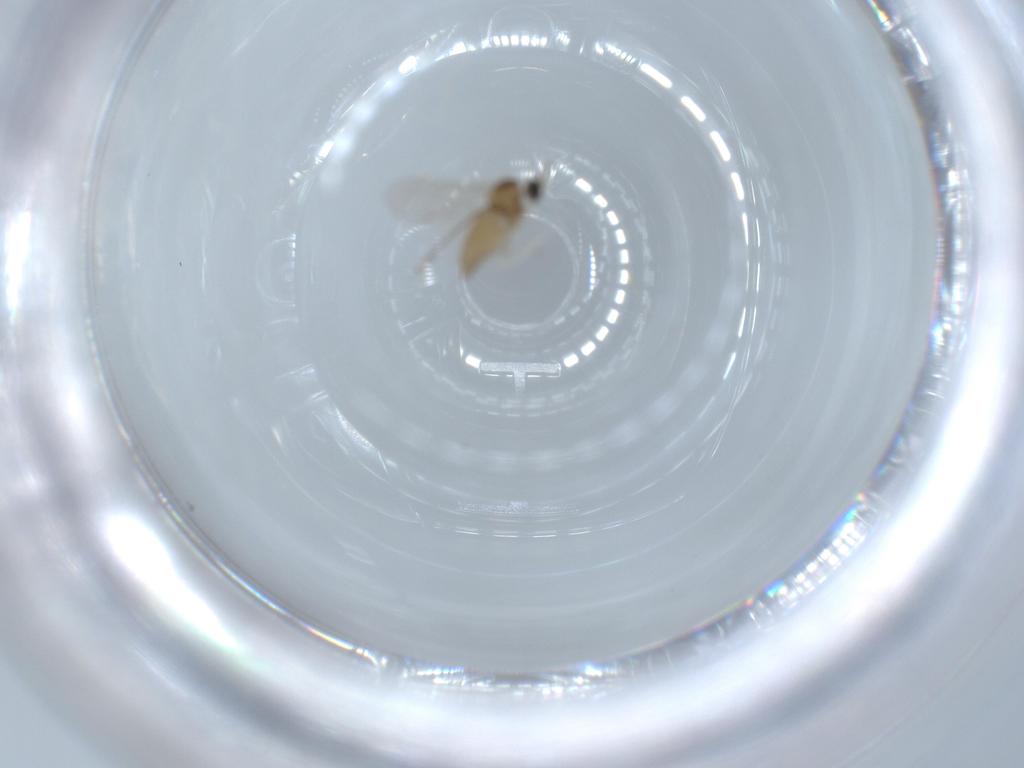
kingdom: Animalia
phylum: Arthropoda
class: Insecta
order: Diptera
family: Cecidomyiidae
